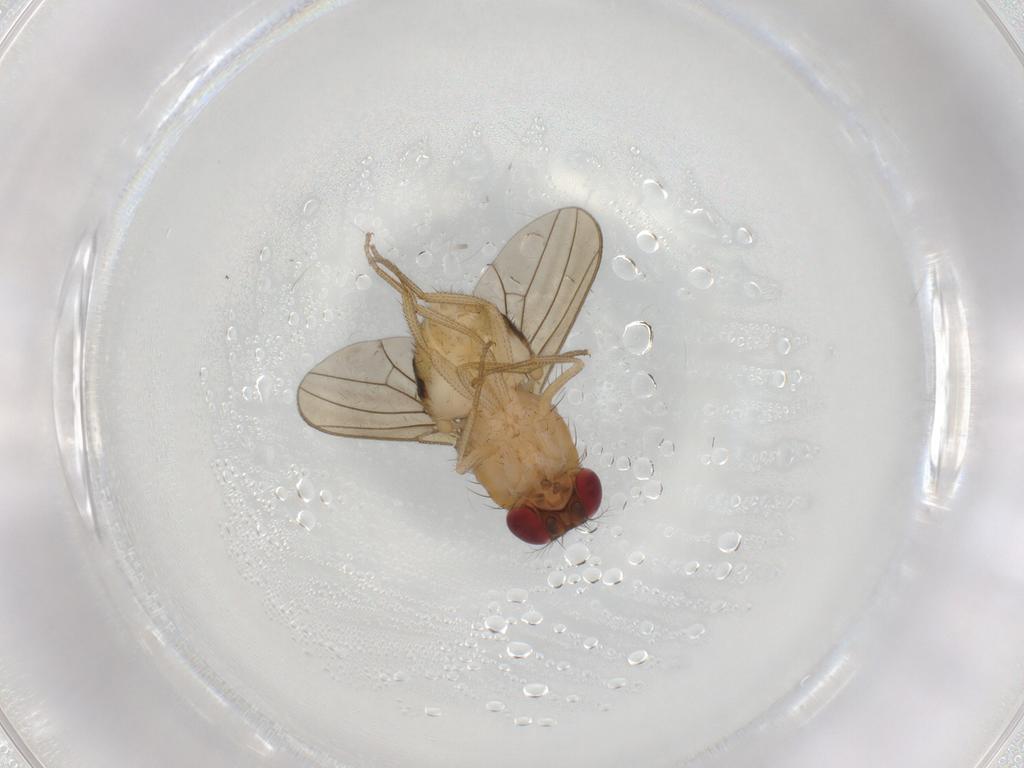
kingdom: Animalia
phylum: Arthropoda
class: Insecta
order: Diptera
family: Drosophilidae
